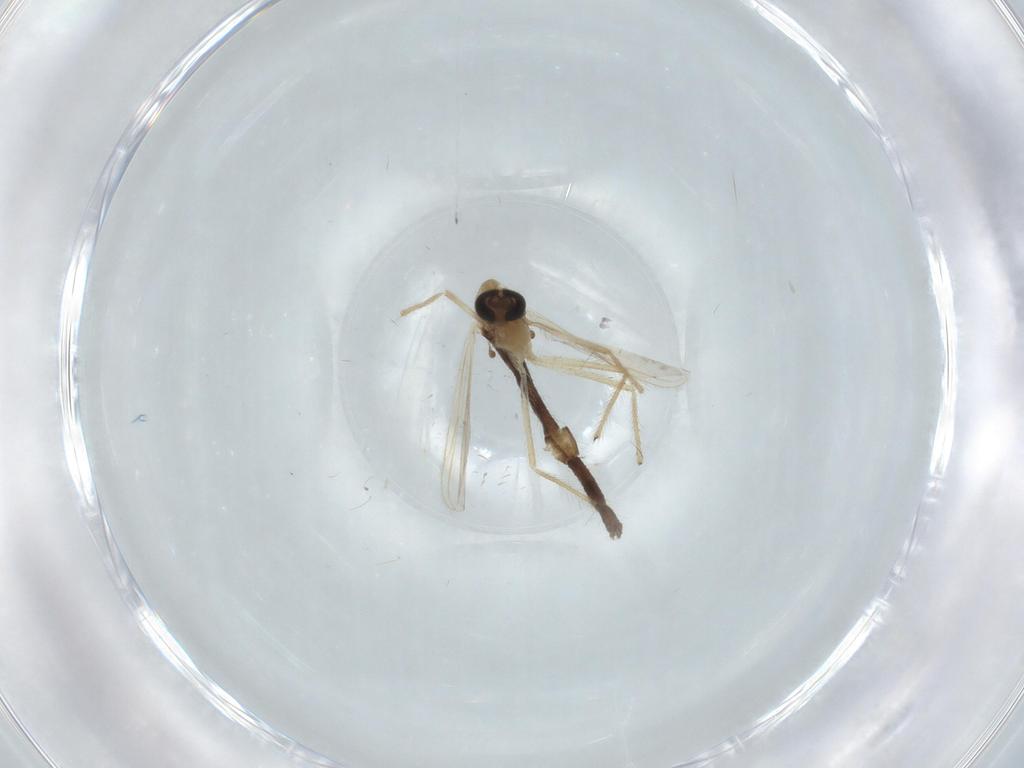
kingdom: Animalia
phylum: Arthropoda
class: Insecta
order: Diptera
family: Chironomidae
